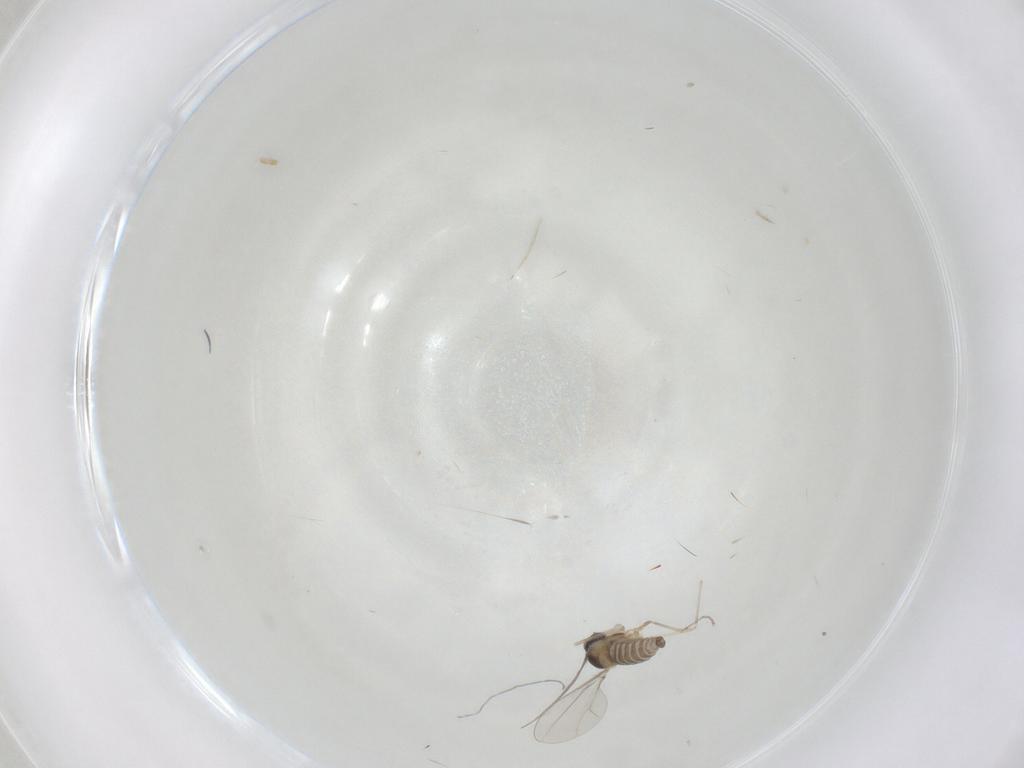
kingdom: Animalia
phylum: Arthropoda
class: Insecta
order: Diptera
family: Cecidomyiidae
